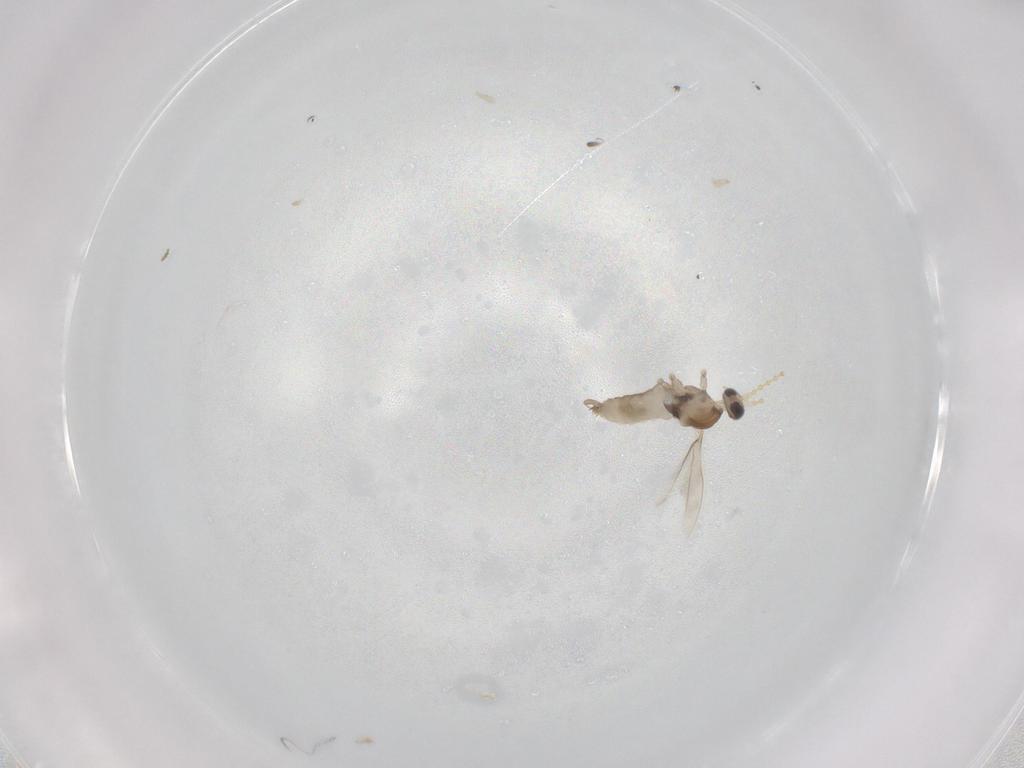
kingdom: Animalia
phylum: Arthropoda
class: Insecta
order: Diptera
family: Cecidomyiidae
